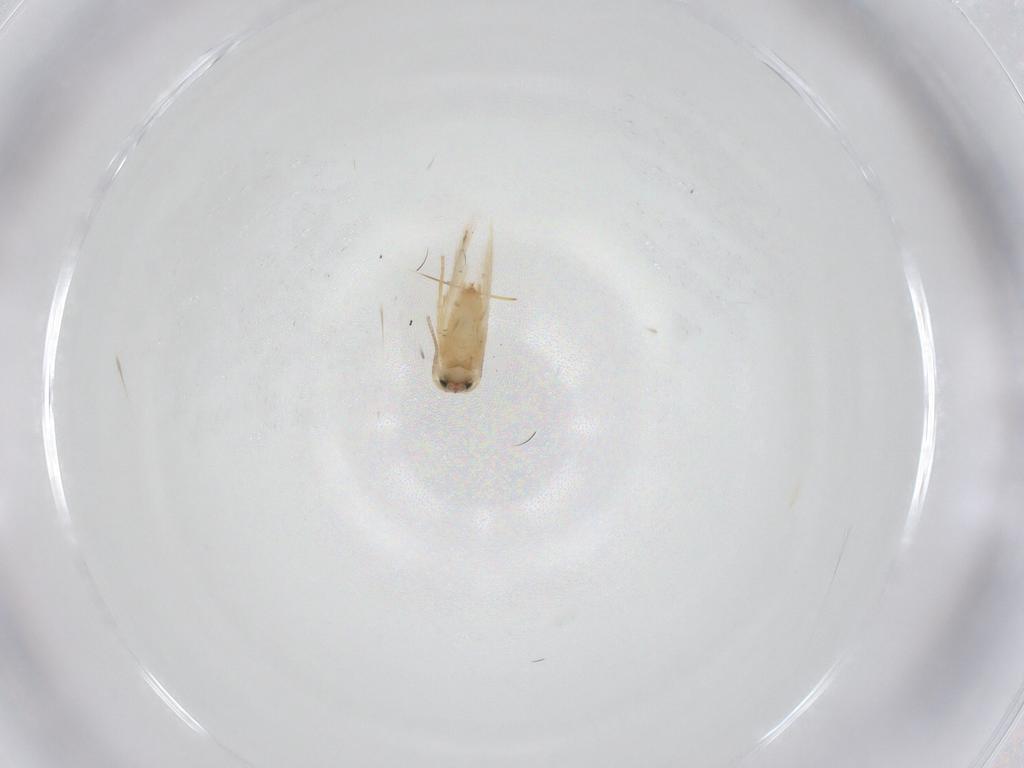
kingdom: Animalia
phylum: Arthropoda
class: Insecta
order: Lepidoptera
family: Crambidae
